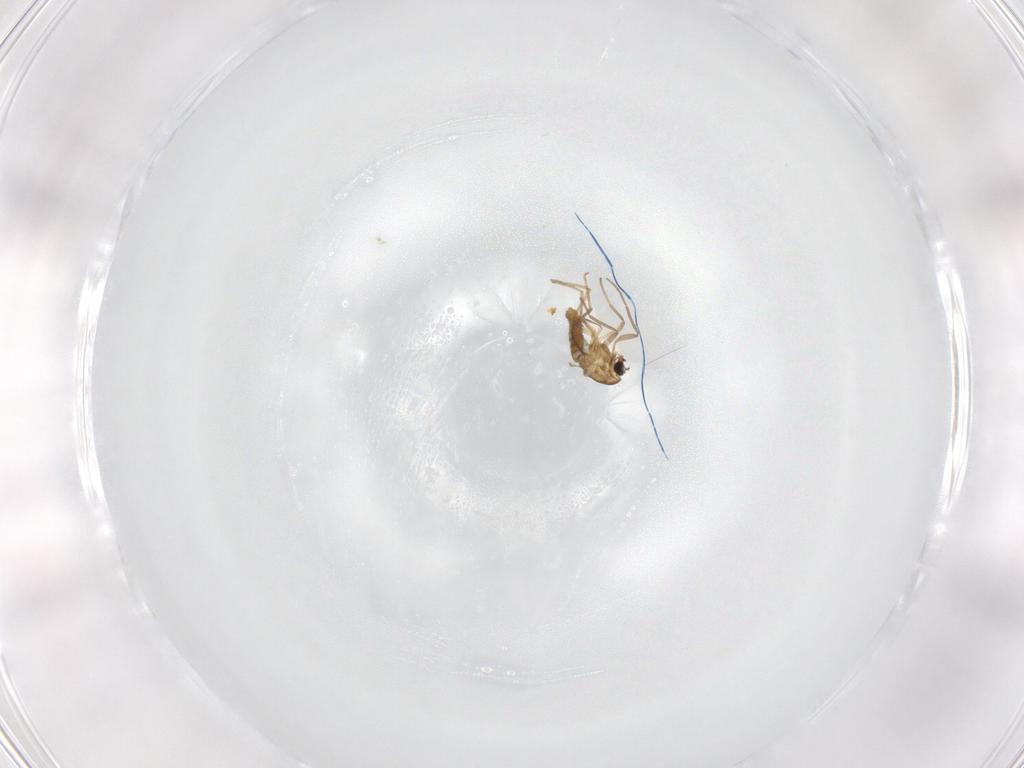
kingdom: Animalia
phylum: Arthropoda
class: Insecta
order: Diptera
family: Chironomidae
